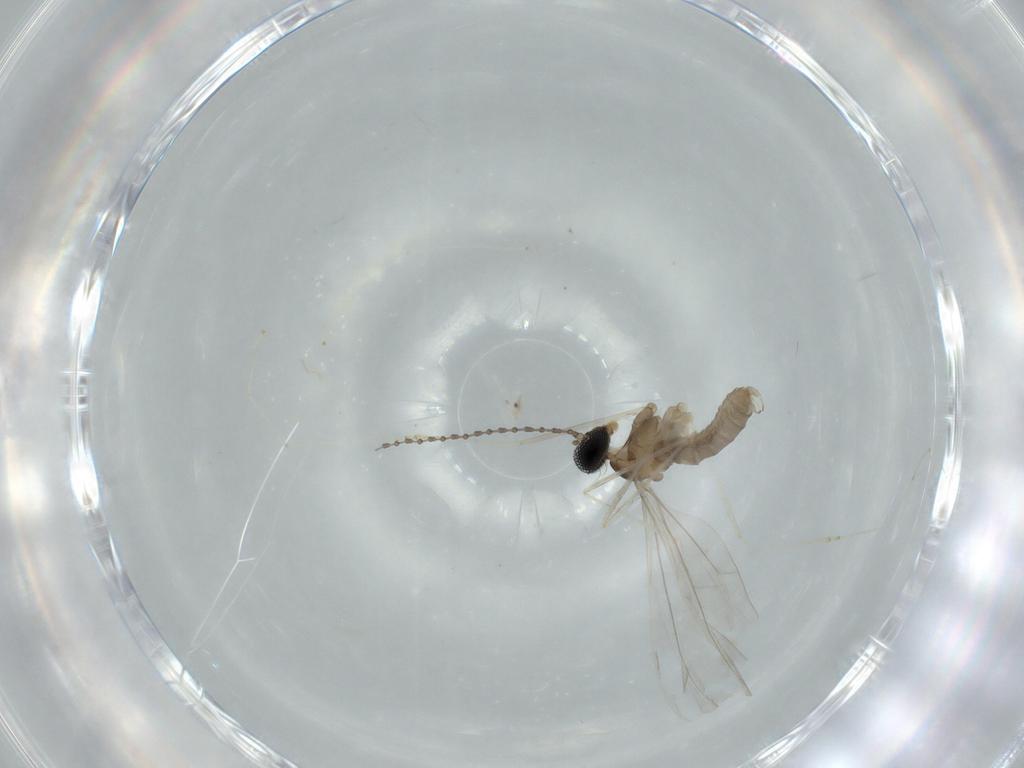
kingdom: Animalia
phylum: Arthropoda
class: Insecta
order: Diptera
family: Cecidomyiidae
